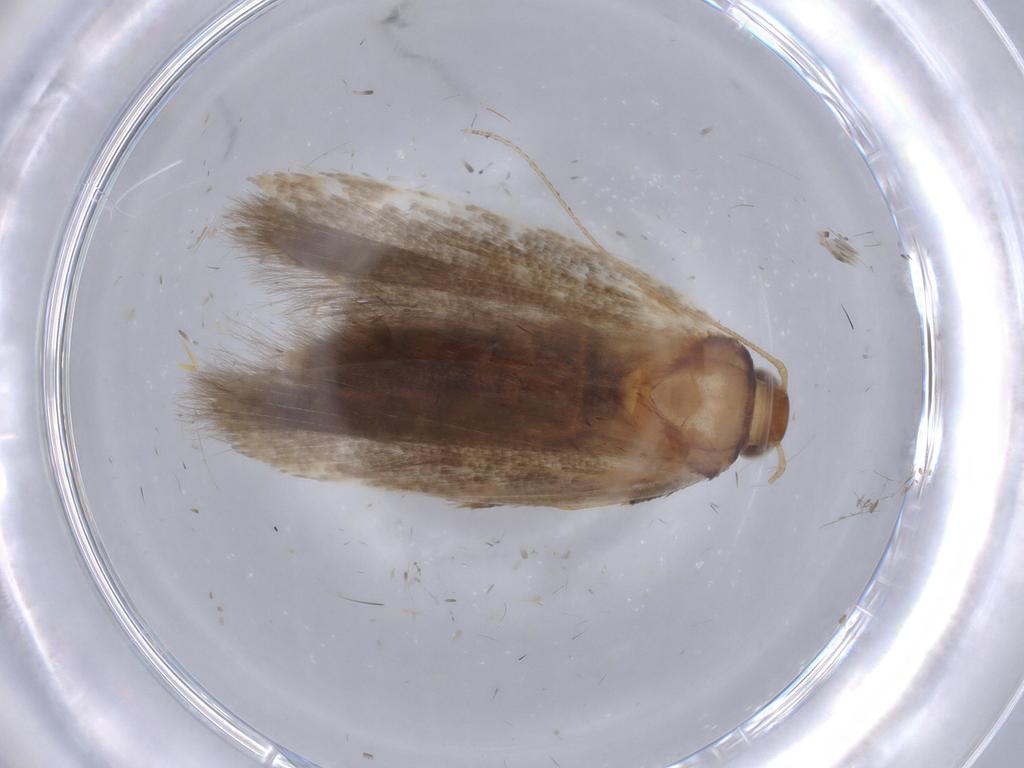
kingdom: Animalia
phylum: Arthropoda
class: Insecta
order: Lepidoptera
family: Gelechiidae
